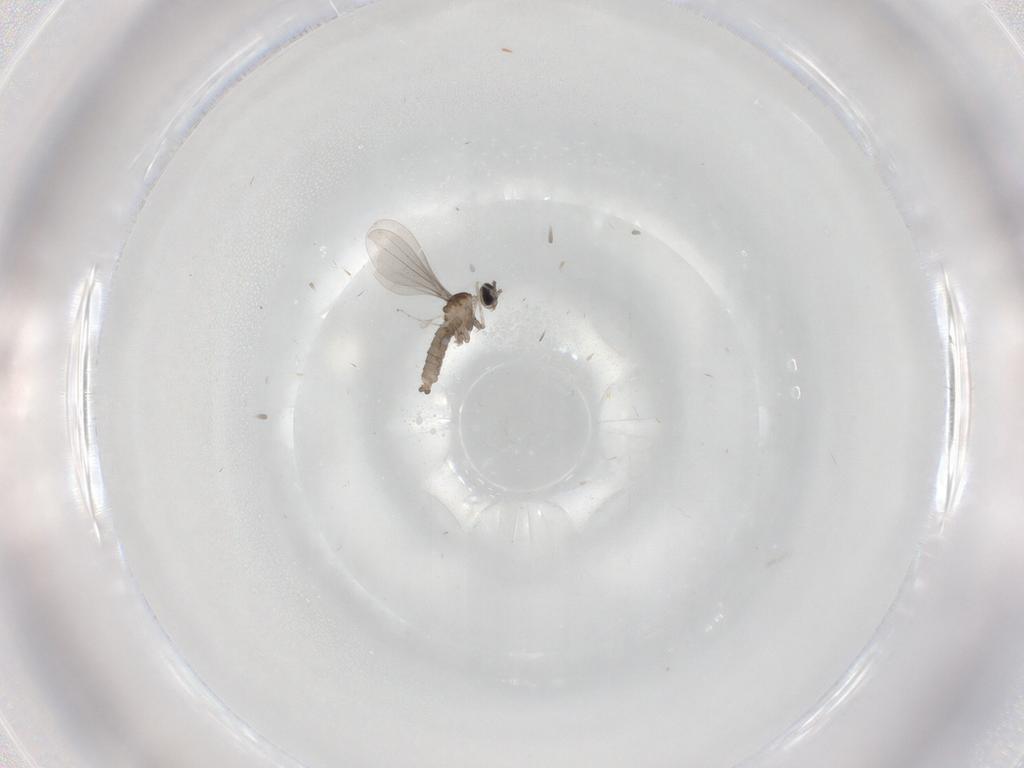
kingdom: Animalia
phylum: Arthropoda
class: Insecta
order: Diptera
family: Cecidomyiidae
